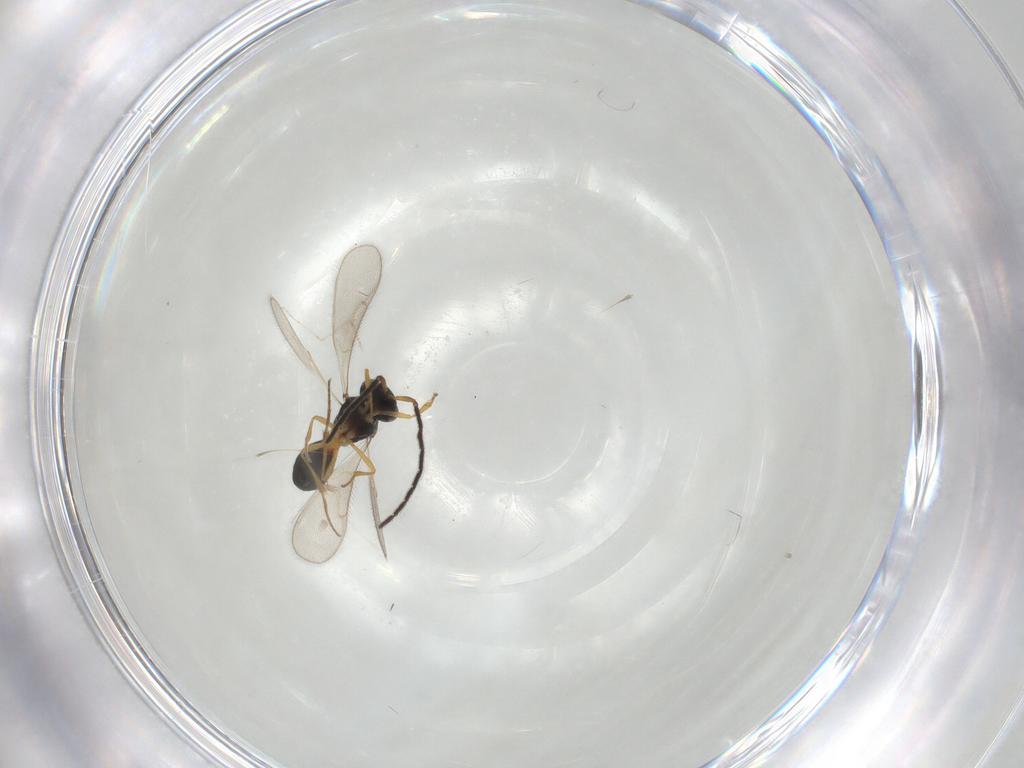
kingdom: Animalia
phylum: Arthropoda
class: Insecta
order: Hymenoptera
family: Scelionidae
